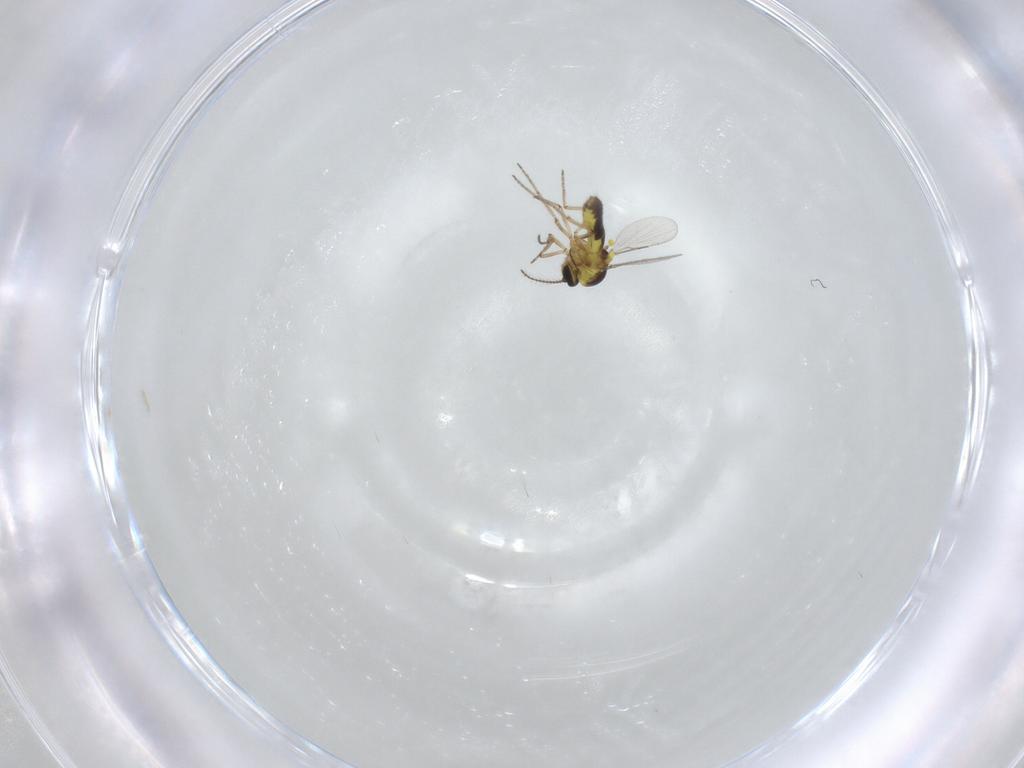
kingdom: Animalia
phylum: Arthropoda
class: Insecta
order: Diptera
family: Ceratopogonidae
